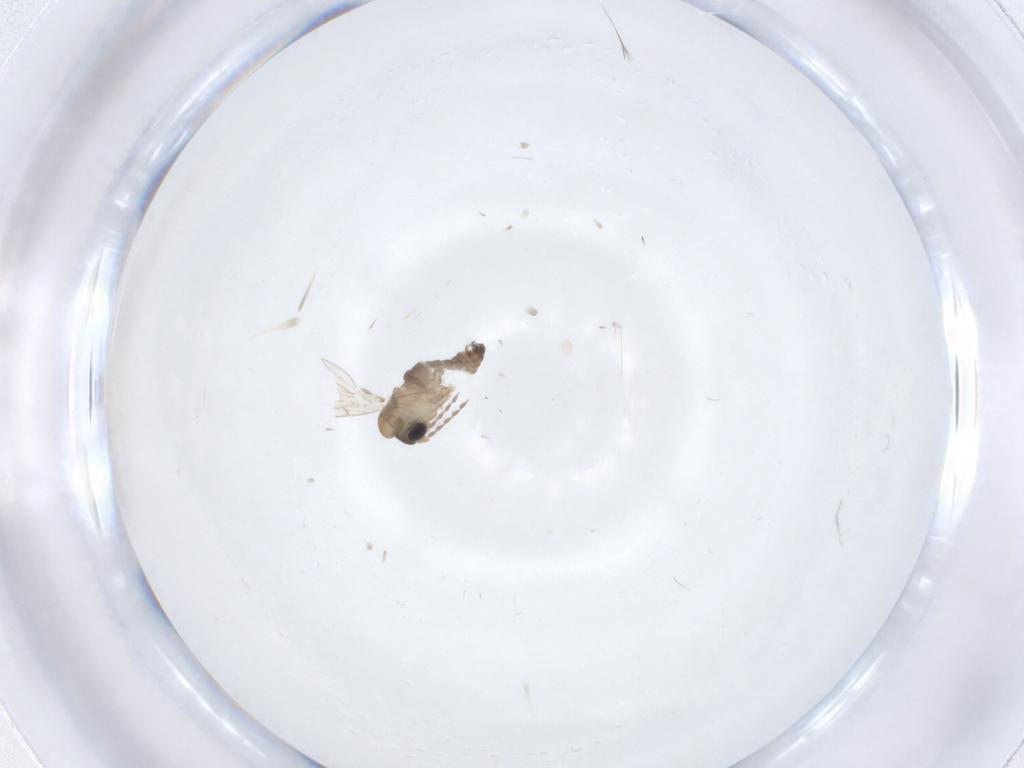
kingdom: Animalia
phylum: Arthropoda
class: Insecta
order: Diptera
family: Psychodidae
